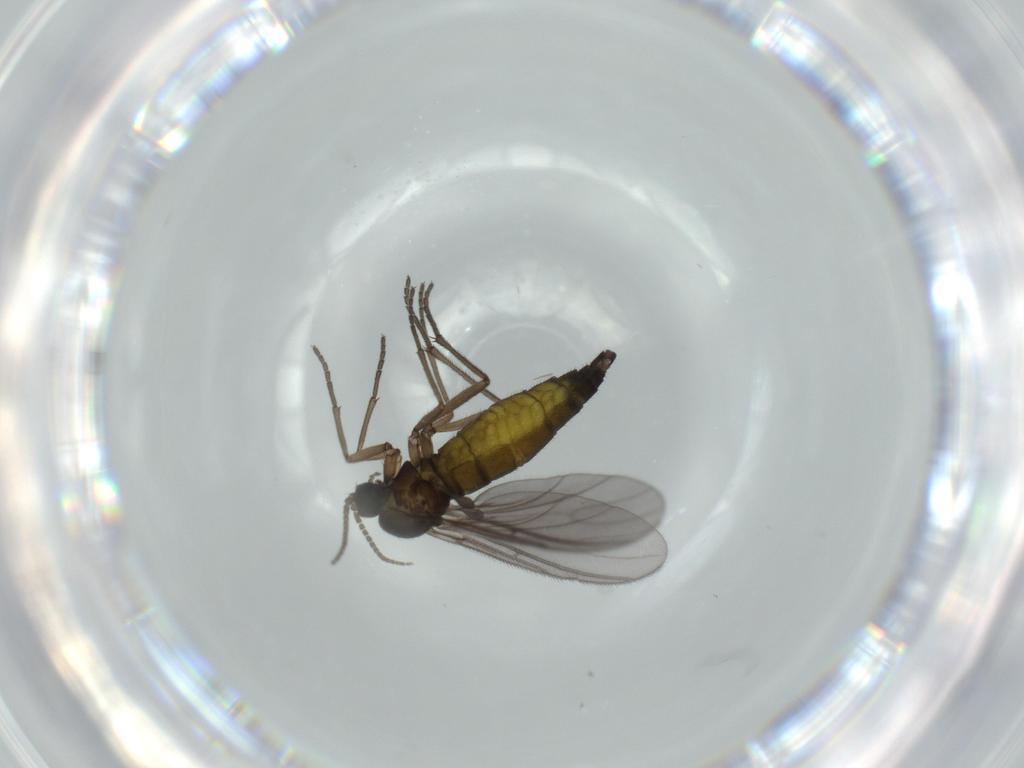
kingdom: Animalia
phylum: Arthropoda
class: Insecta
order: Diptera
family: Sciaridae
